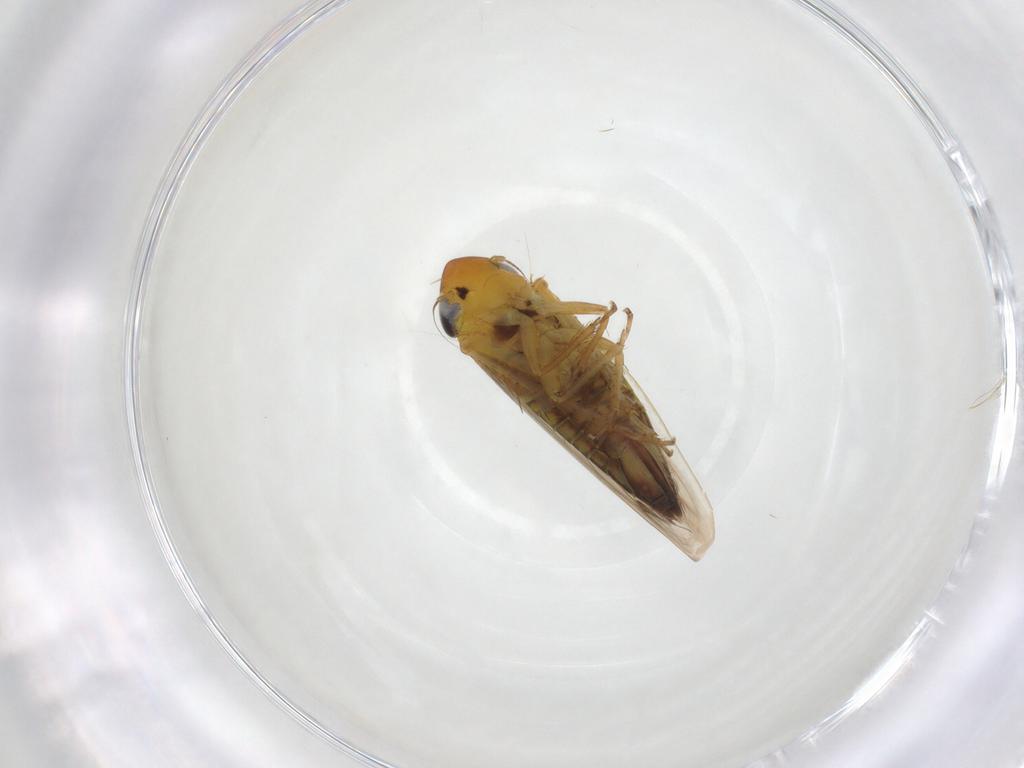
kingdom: Animalia
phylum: Arthropoda
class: Insecta
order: Hemiptera
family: Cicadellidae
